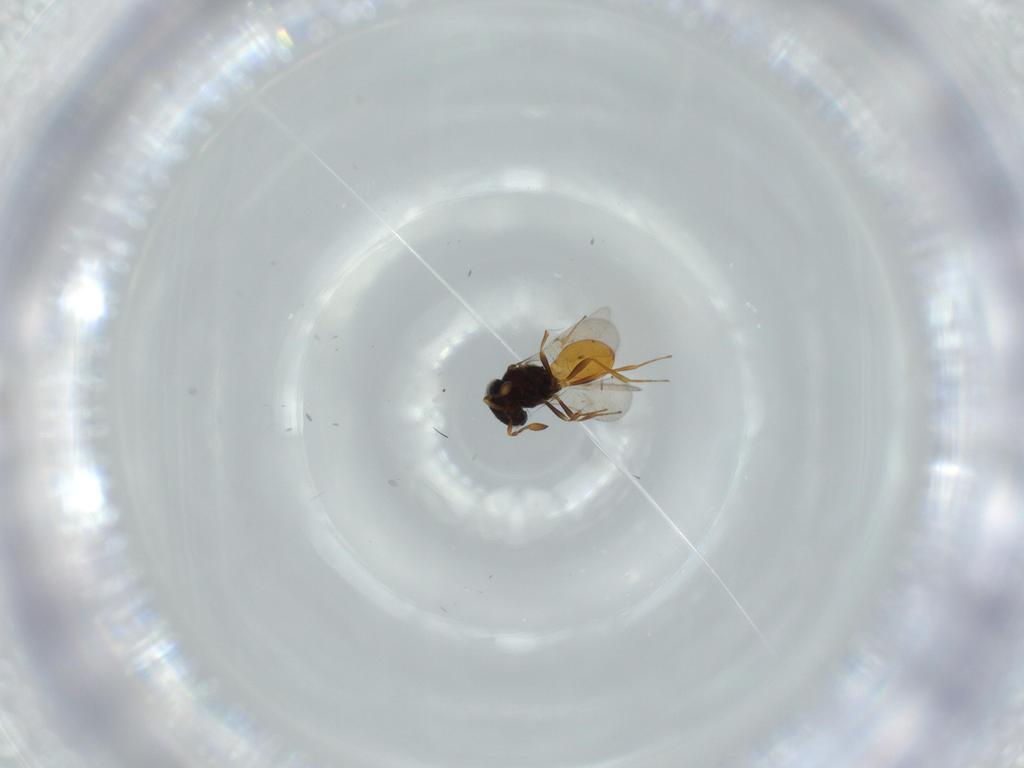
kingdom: Animalia
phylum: Arthropoda
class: Insecta
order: Hymenoptera
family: Scelionidae
